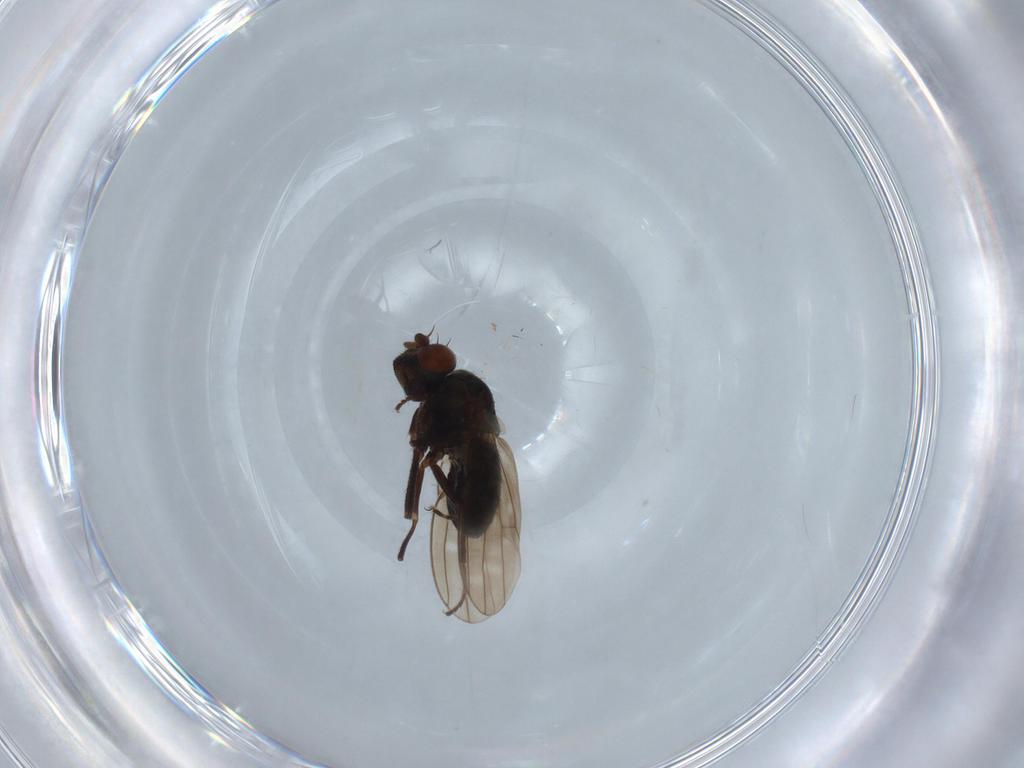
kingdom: Animalia
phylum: Arthropoda
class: Insecta
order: Diptera
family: Ephydridae
